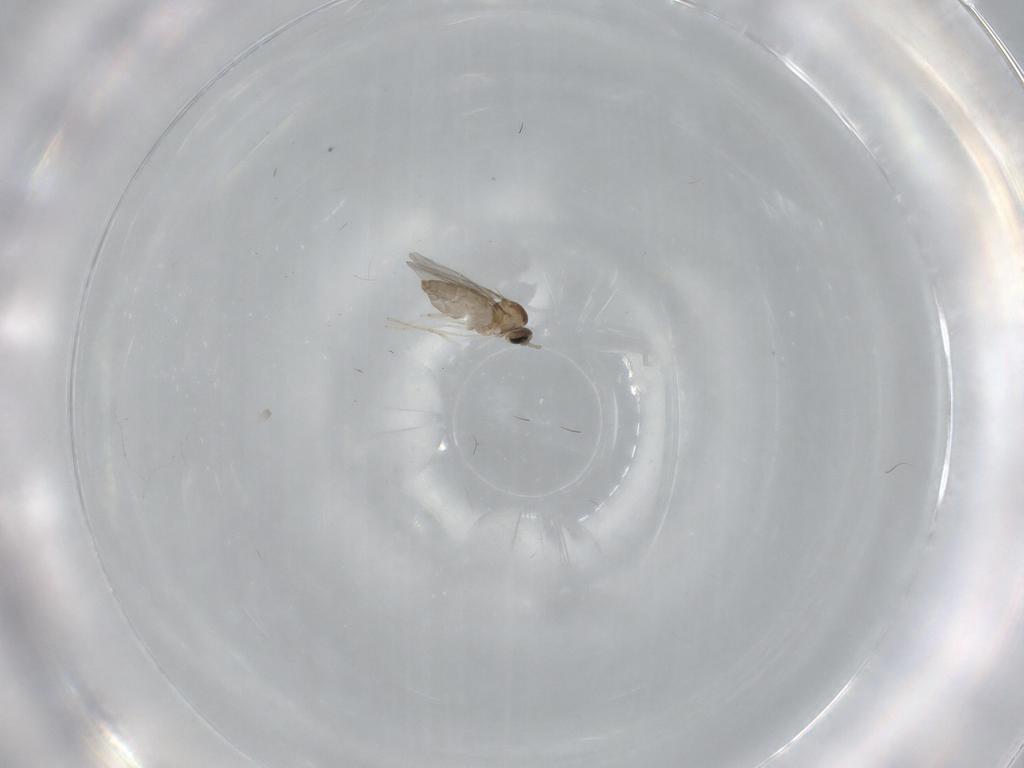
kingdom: Animalia
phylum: Arthropoda
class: Insecta
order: Diptera
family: Cecidomyiidae
